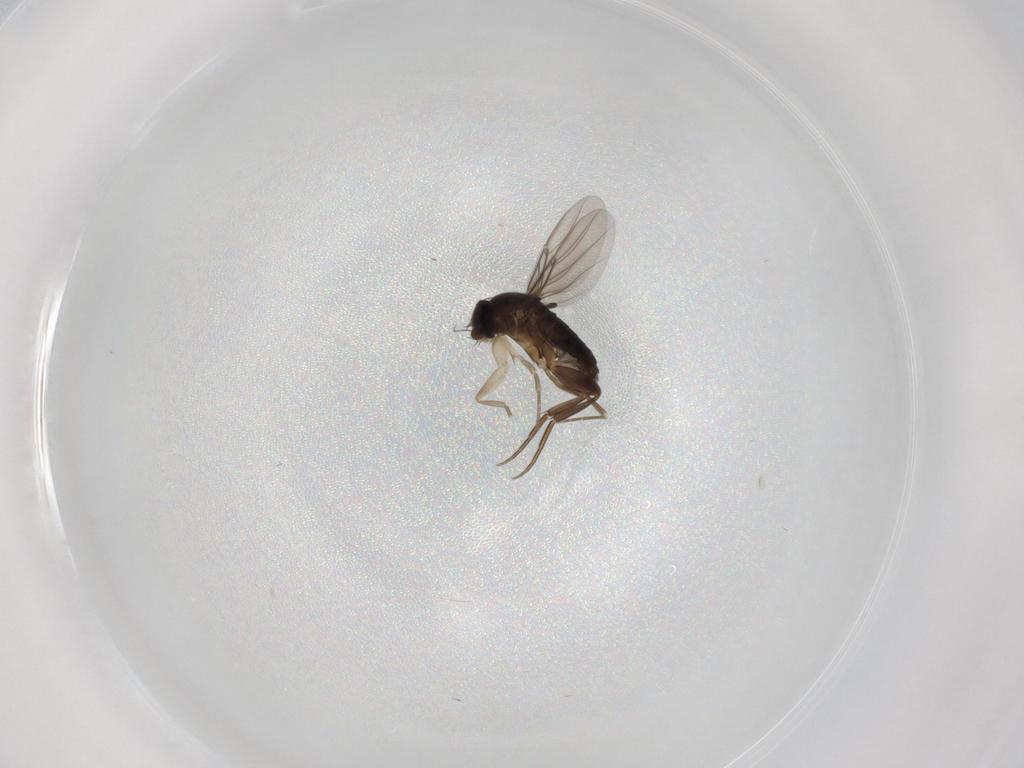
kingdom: Animalia
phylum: Arthropoda
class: Insecta
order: Diptera
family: Phoridae
